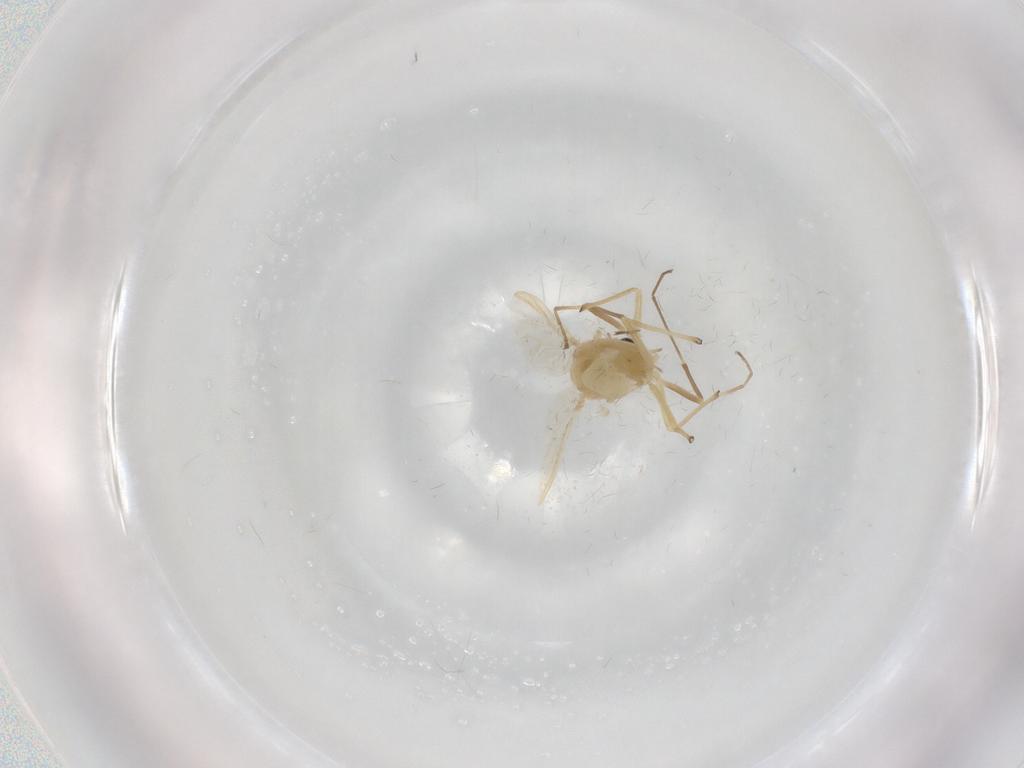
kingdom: Animalia
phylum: Arthropoda
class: Insecta
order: Diptera
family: Chironomidae
